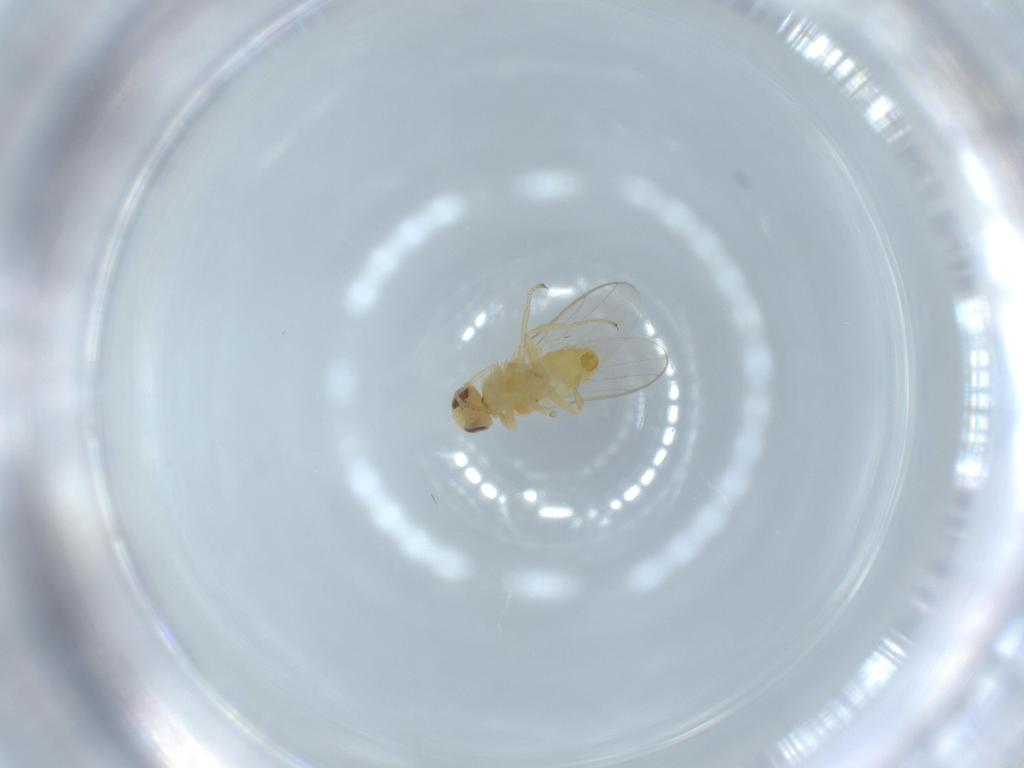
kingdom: Animalia
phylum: Arthropoda
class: Insecta
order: Diptera
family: Chloropidae
